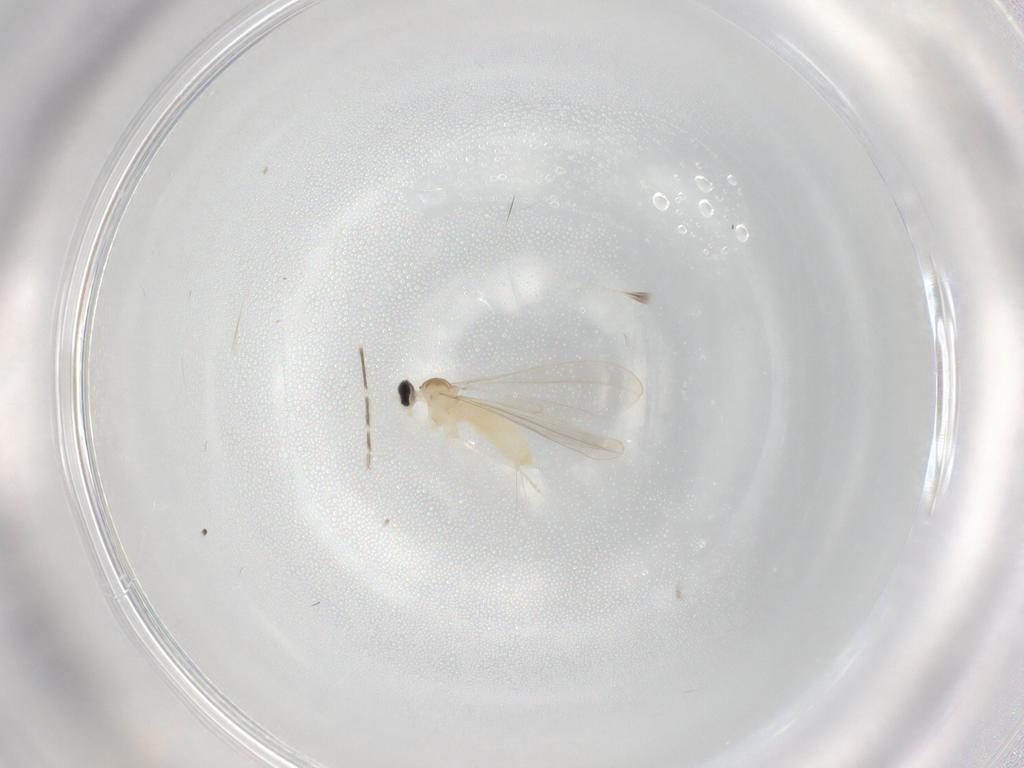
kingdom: Animalia
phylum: Arthropoda
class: Insecta
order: Diptera
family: Cecidomyiidae
